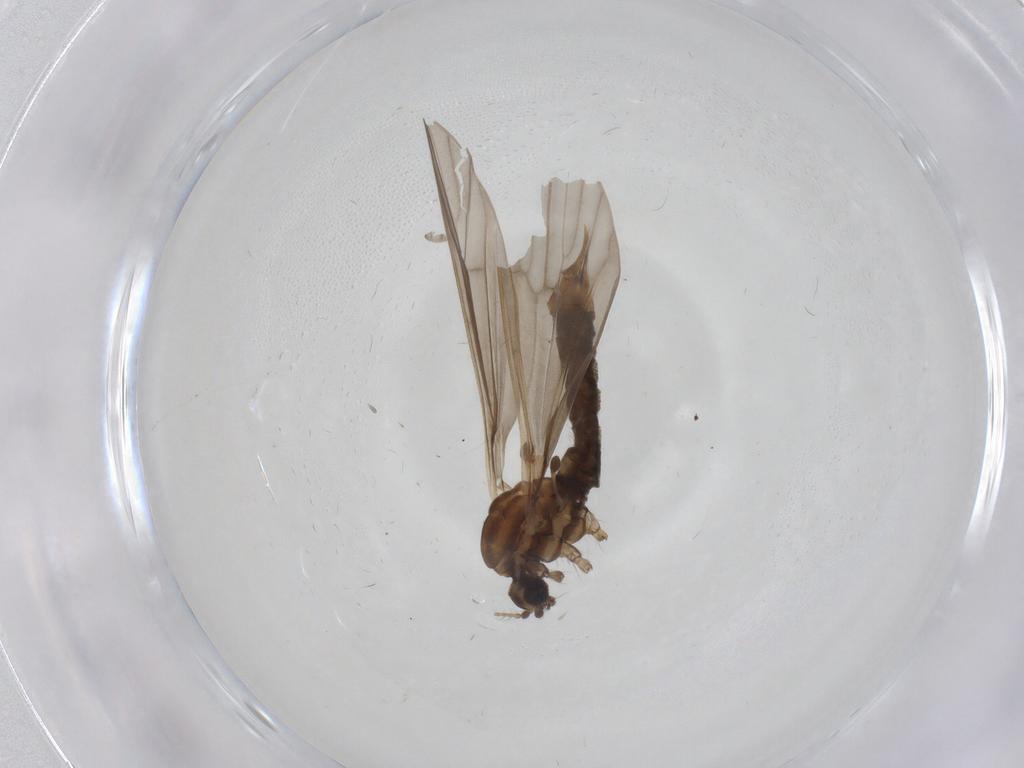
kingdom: Animalia
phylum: Arthropoda
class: Insecta
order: Diptera
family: Limoniidae
